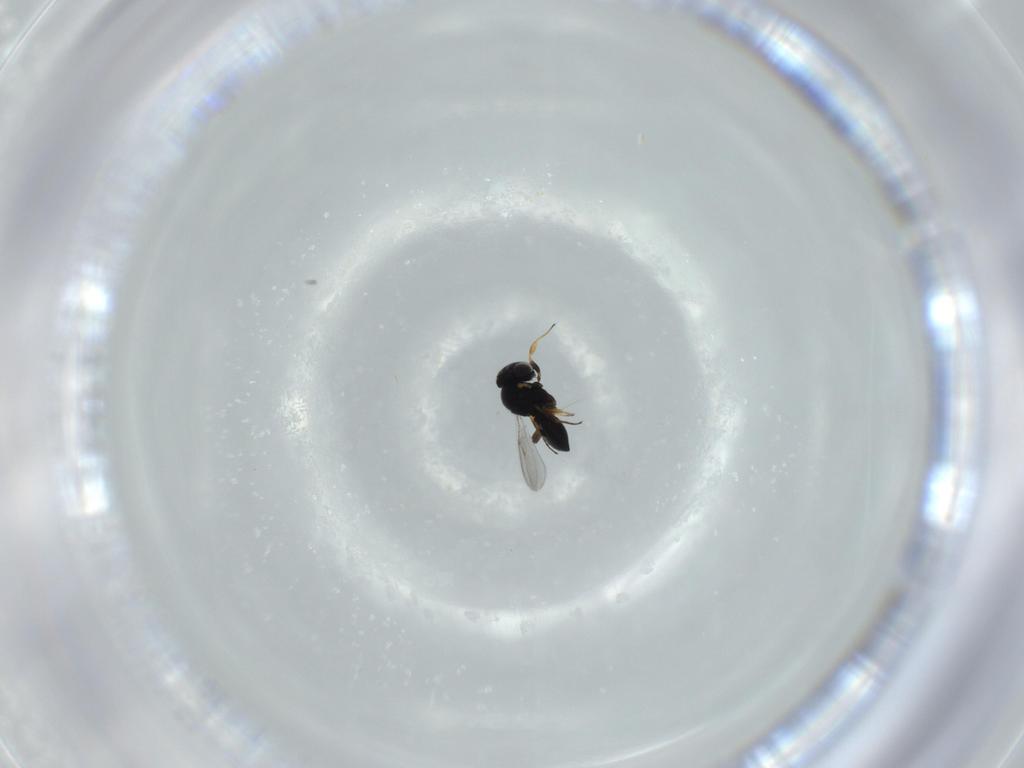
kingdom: Animalia
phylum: Arthropoda
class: Insecta
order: Hymenoptera
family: Scelionidae
